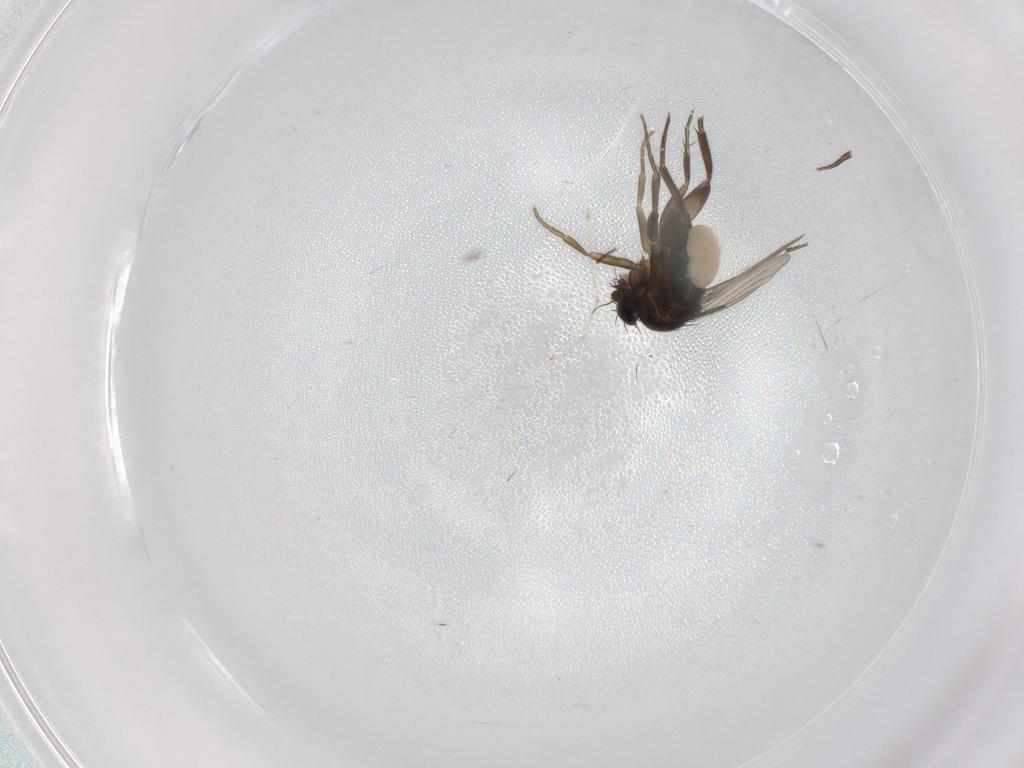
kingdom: Animalia
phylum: Arthropoda
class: Insecta
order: Diptera
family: Sciaridae
